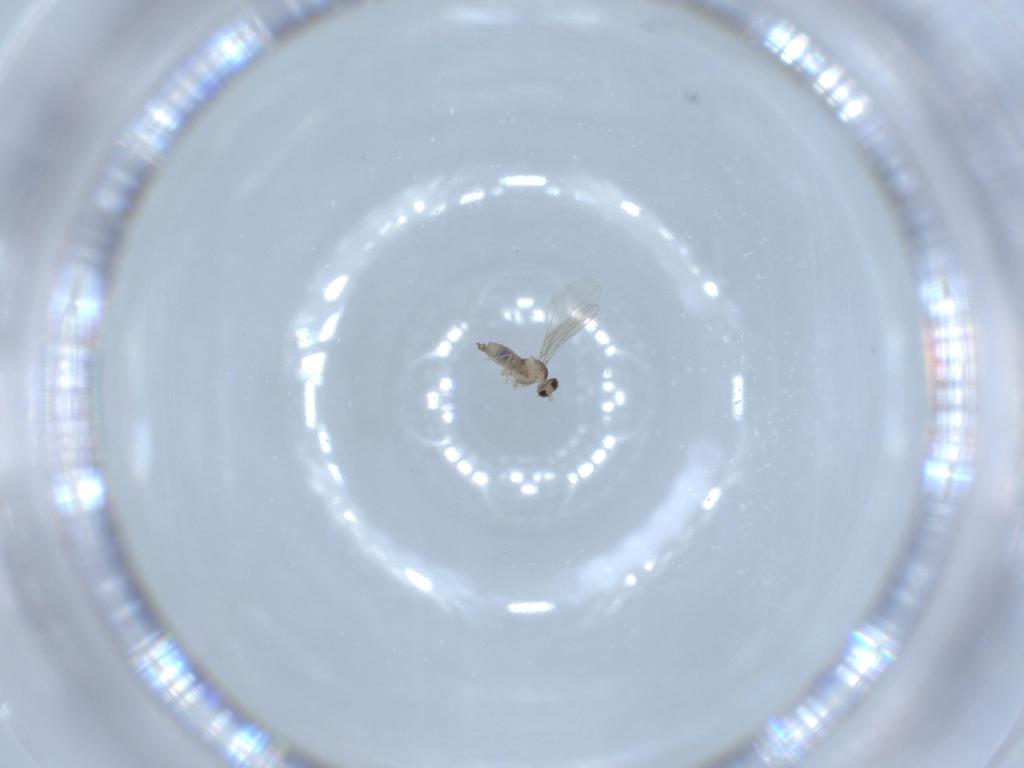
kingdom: Animalia
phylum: Arthropoda
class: Insecta
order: Diptera
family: Cecidomyiidae
